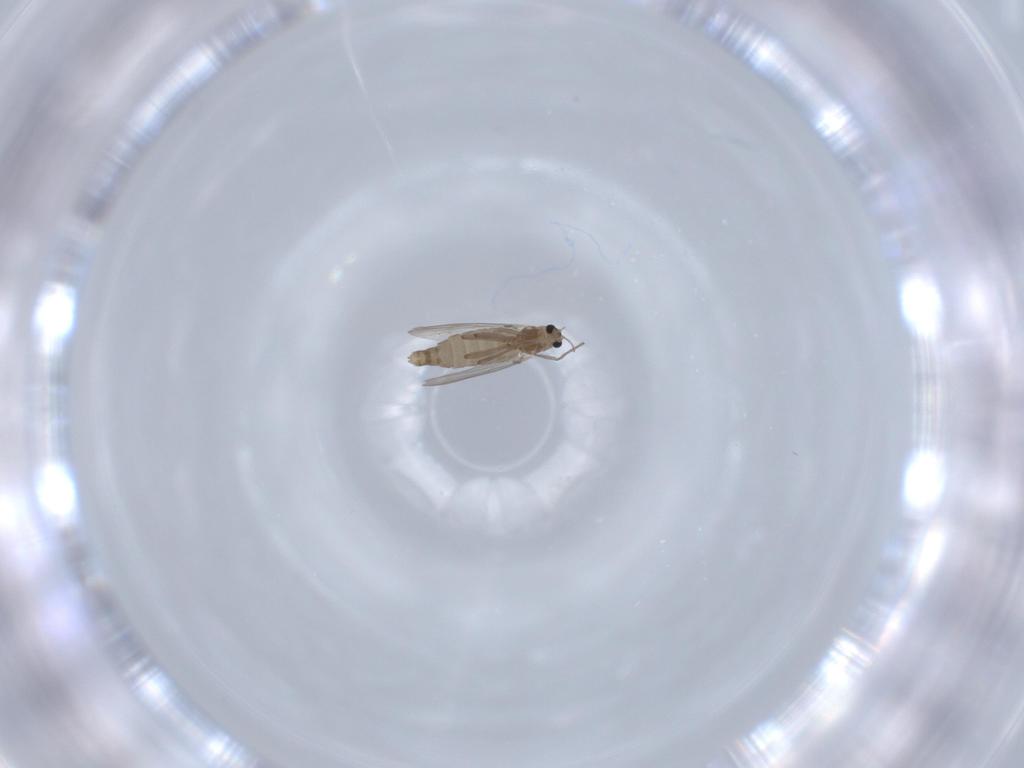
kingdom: Animalia
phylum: Arthropoda
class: Insecta
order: Diptera
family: Chironomidae
